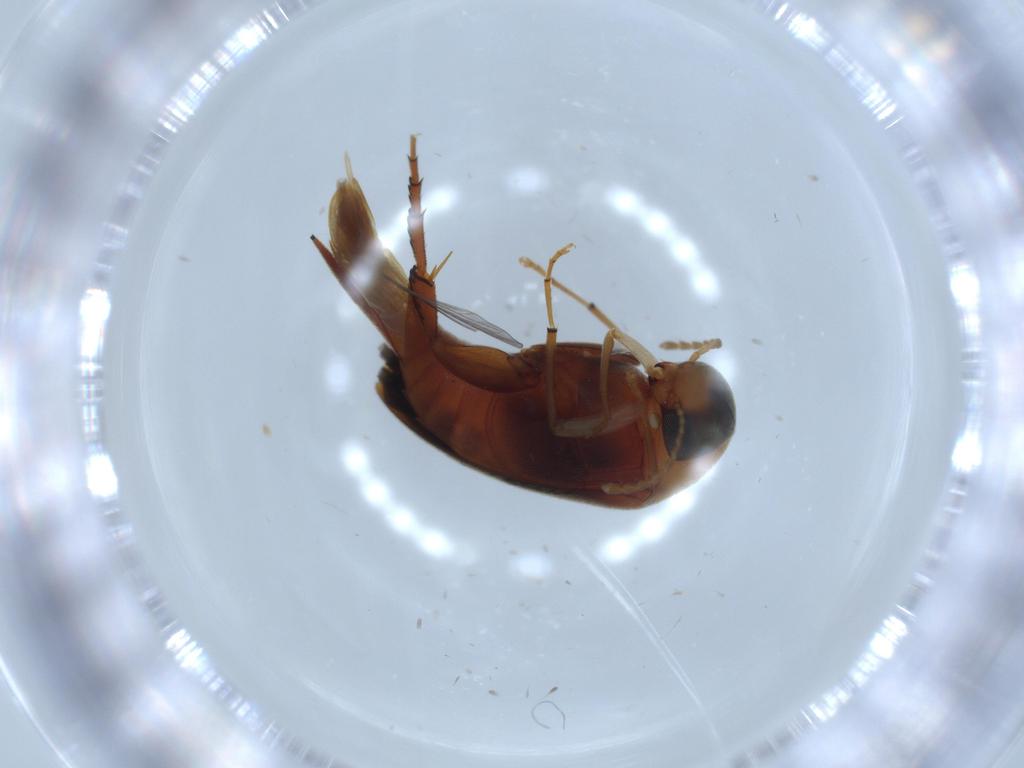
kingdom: Animalia
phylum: Arthropoda
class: Insecta
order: Coleoptera
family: Mordellidae
